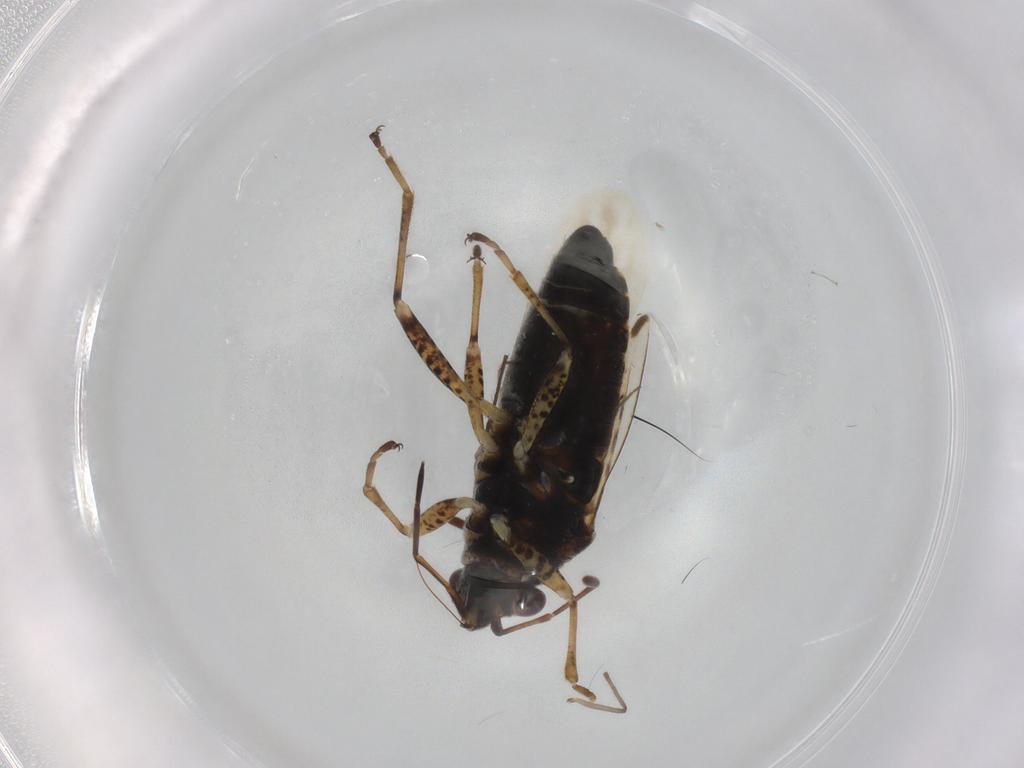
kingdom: Animalia
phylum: Arthropoda
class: Insecta
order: Hemiptera
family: Lygaeidae
